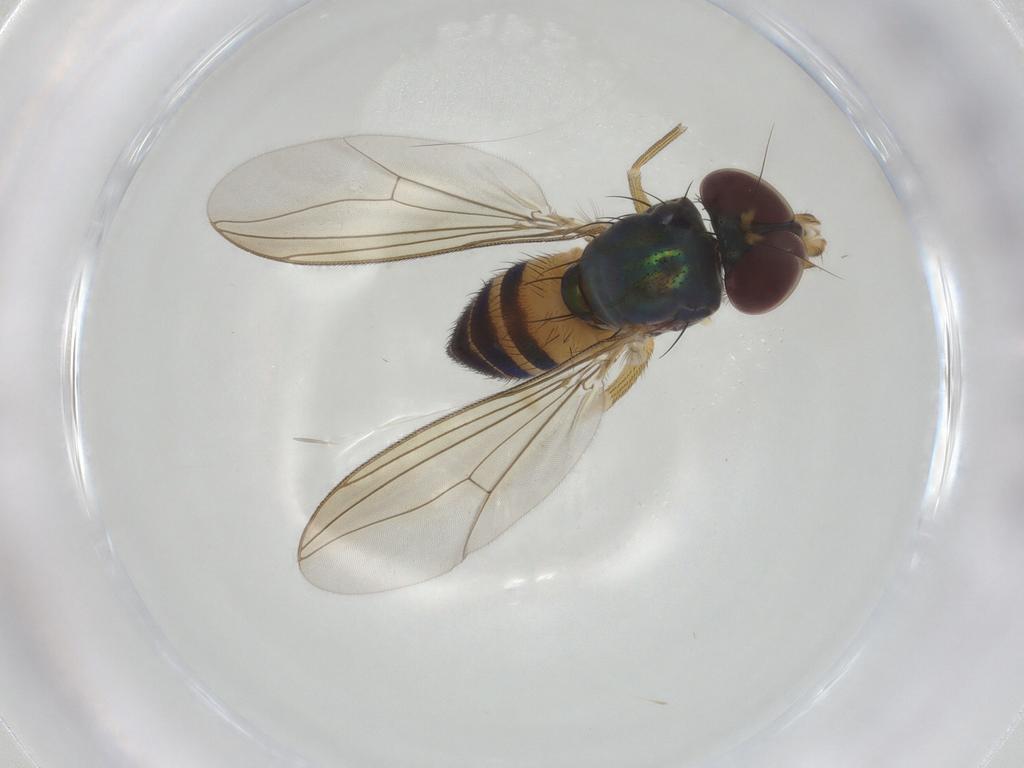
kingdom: Animalia
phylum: Arthropoda
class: Insecta
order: Diptera
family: Dolichopodidae
